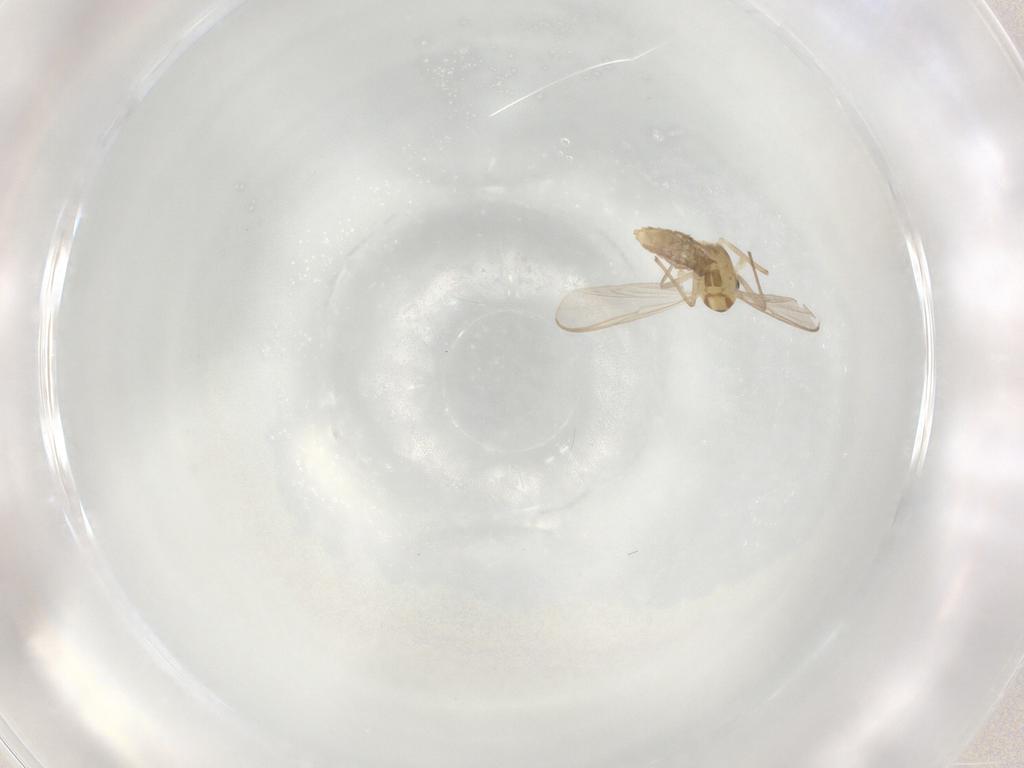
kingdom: Animalia
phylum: Arthropoda
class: Insecta
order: Diptera
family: Chironomidae
